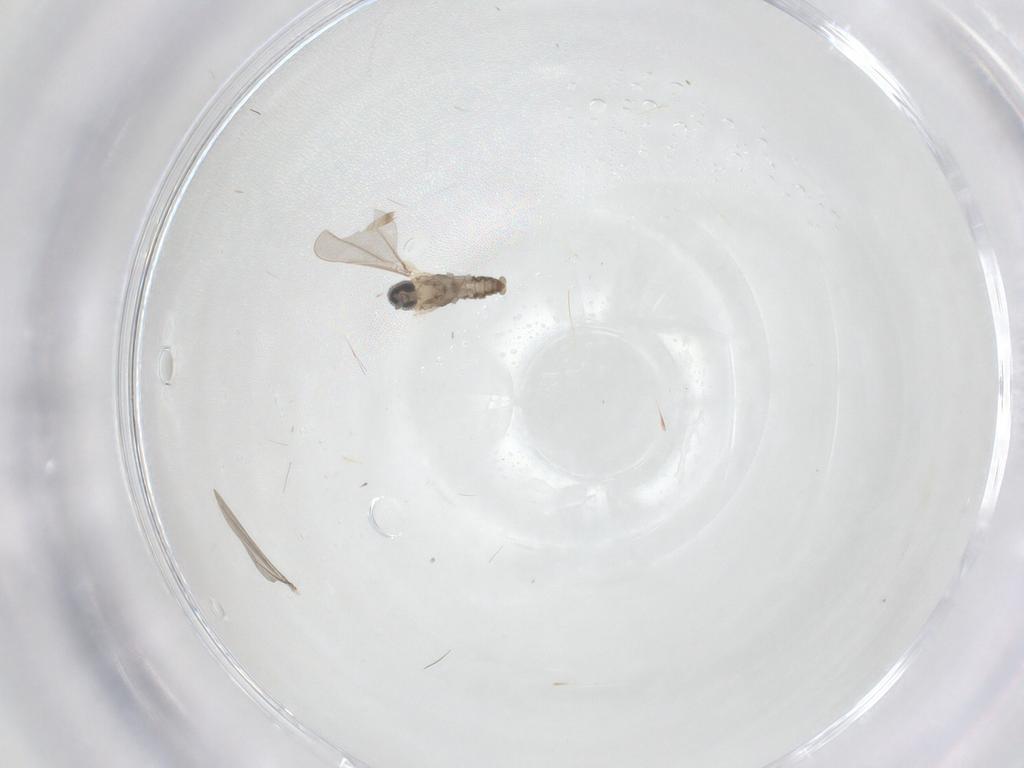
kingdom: Animalia
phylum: Arthropoda
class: Insecta
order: Diptera
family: Cecidomyiidae
